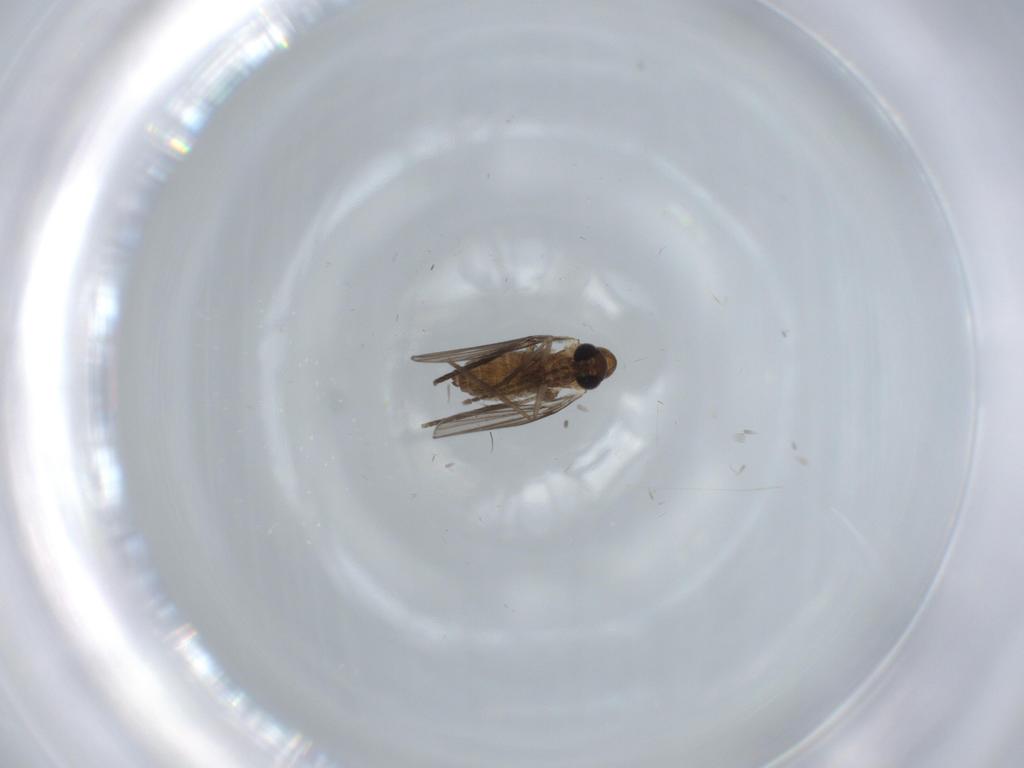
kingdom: Animalia
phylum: Arthropoda
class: Insecta
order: Diptera
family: Psychodidae
